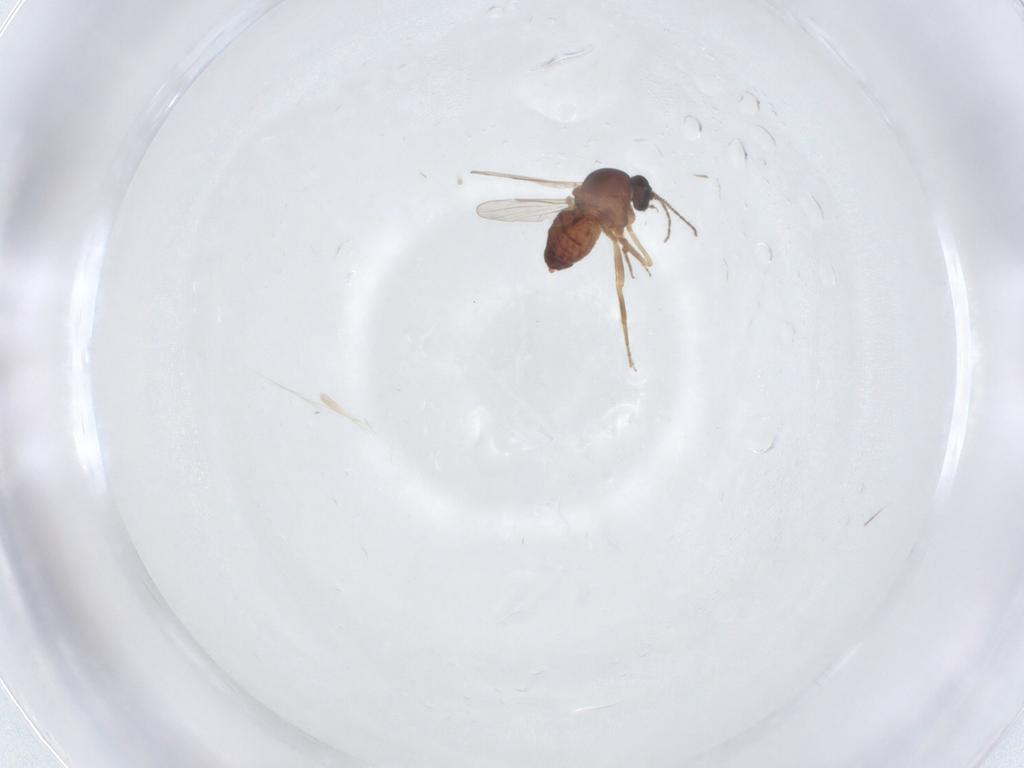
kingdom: Animalia
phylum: Arthropoda
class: Insecta
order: Diptera
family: Ceratopogonidae
